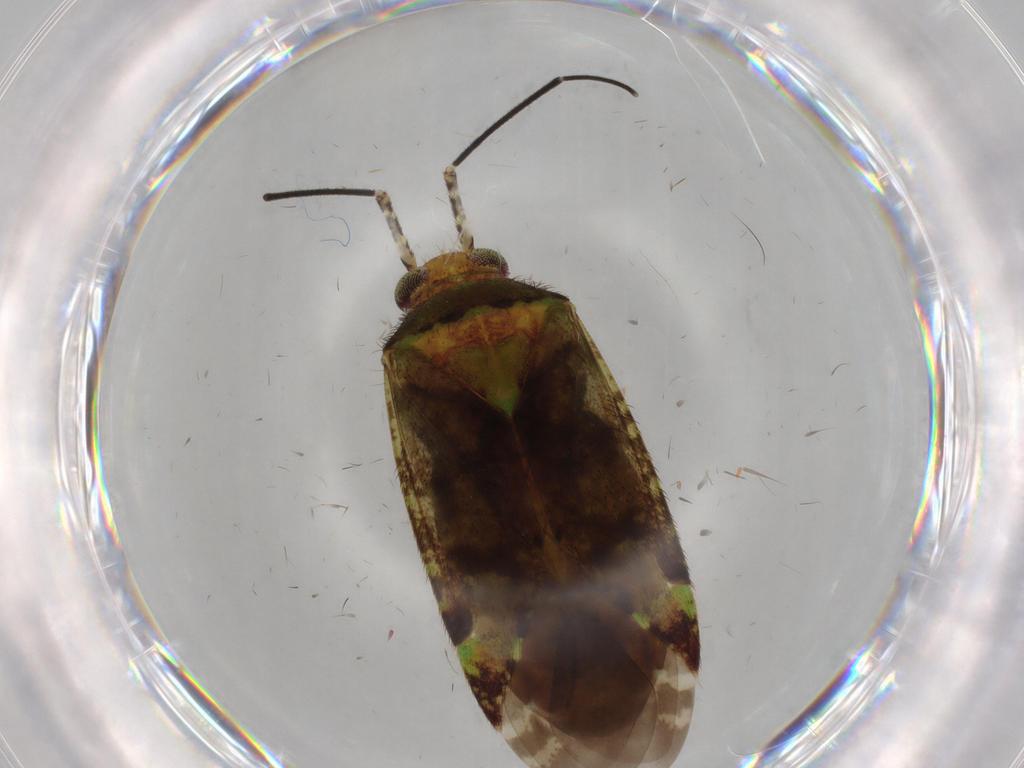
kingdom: Animalia
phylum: Arthropoda
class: Insecta
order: Hemiptera
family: Miridae
